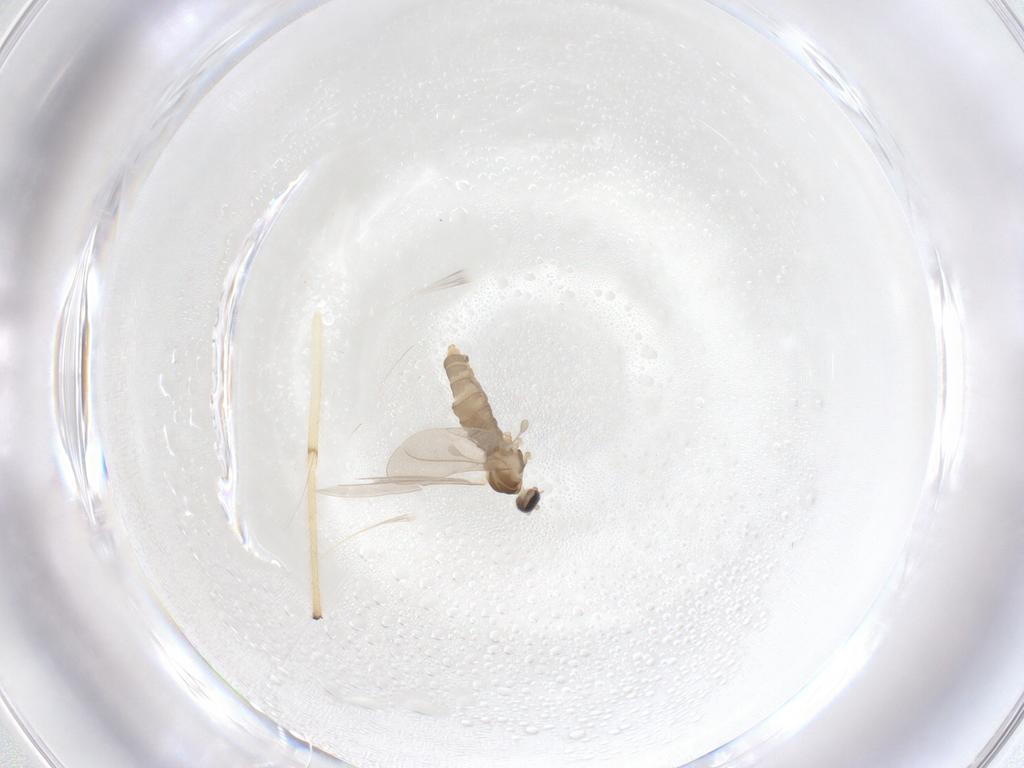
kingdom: Animalia
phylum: Arthropoda
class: Insecta
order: Diptera
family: Cecidomyiidae
